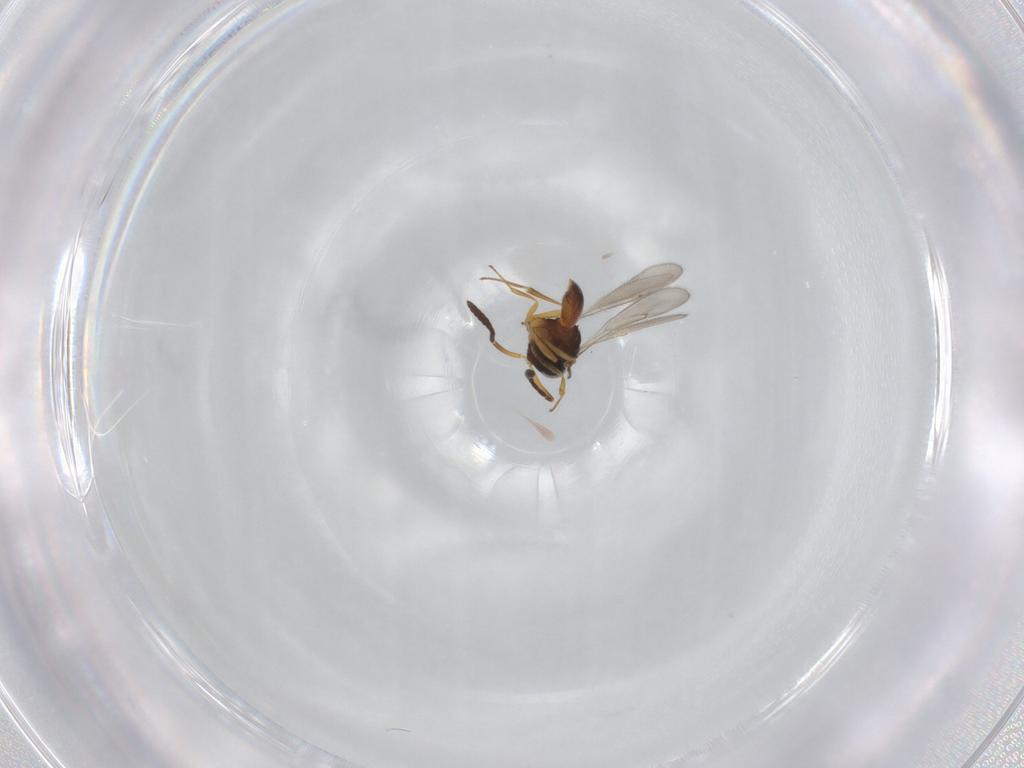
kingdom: Animalia
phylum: Arthropoda
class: Insecta
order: Hymenoptera
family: Scelionidae
